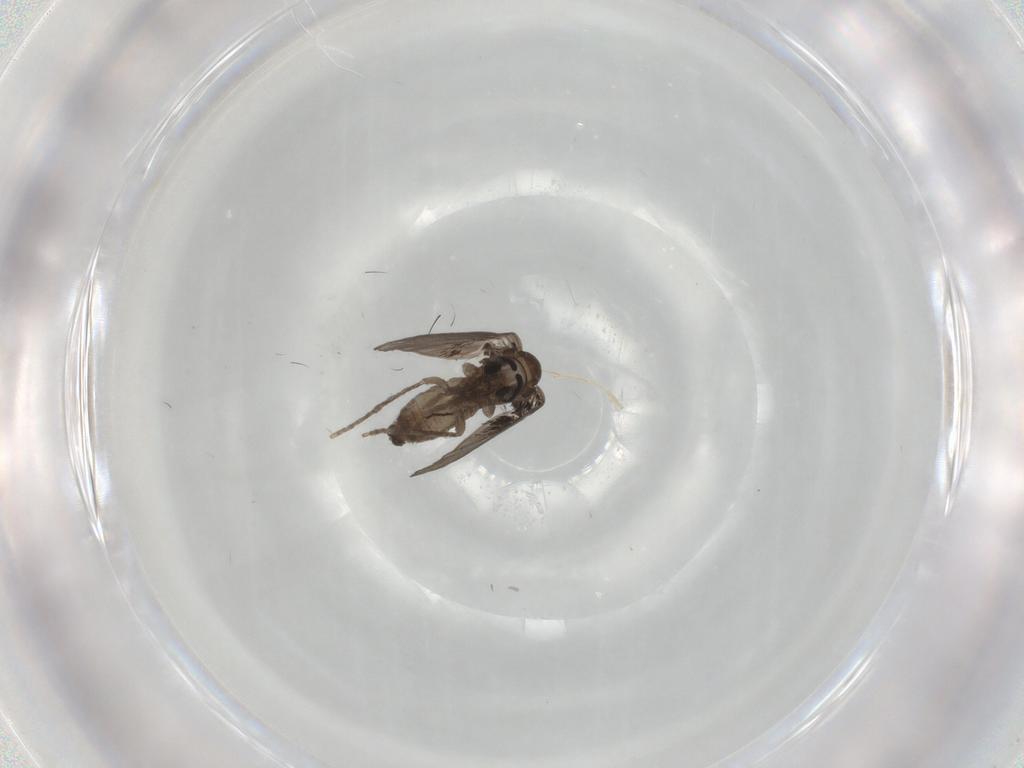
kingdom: Animalia
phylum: Arthropoda
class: Insecta
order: Diptera
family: Psychodidae
